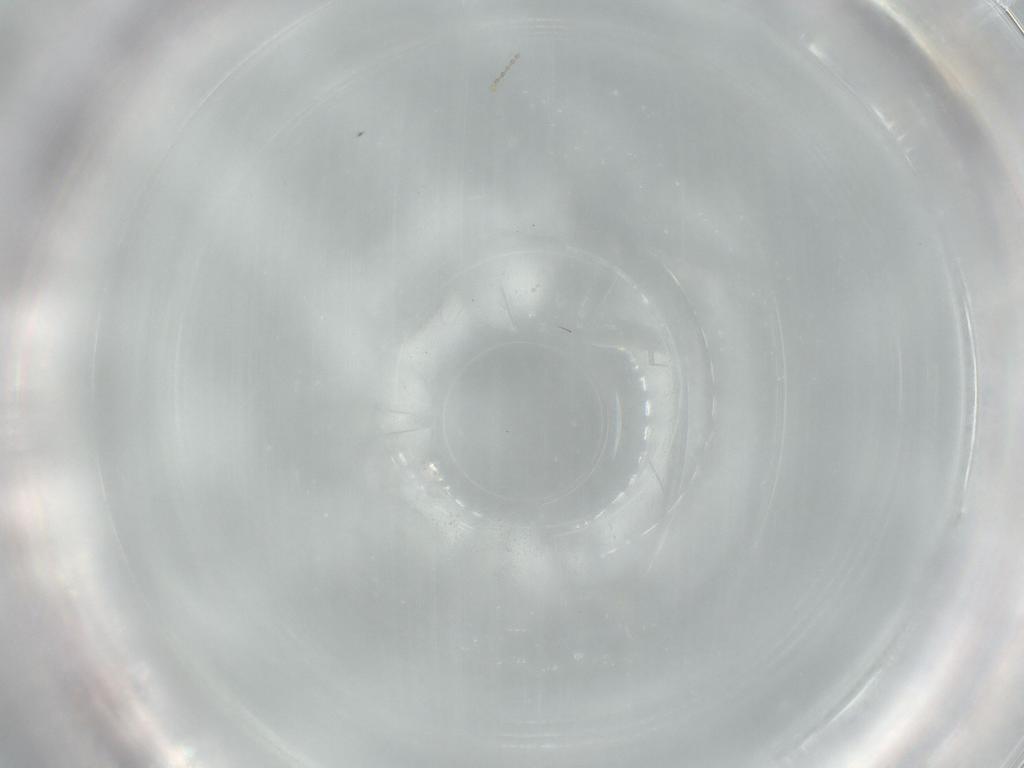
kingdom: Animalia
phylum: Arthropoda
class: Insecta
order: Diptera
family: Cecidomyiidae
